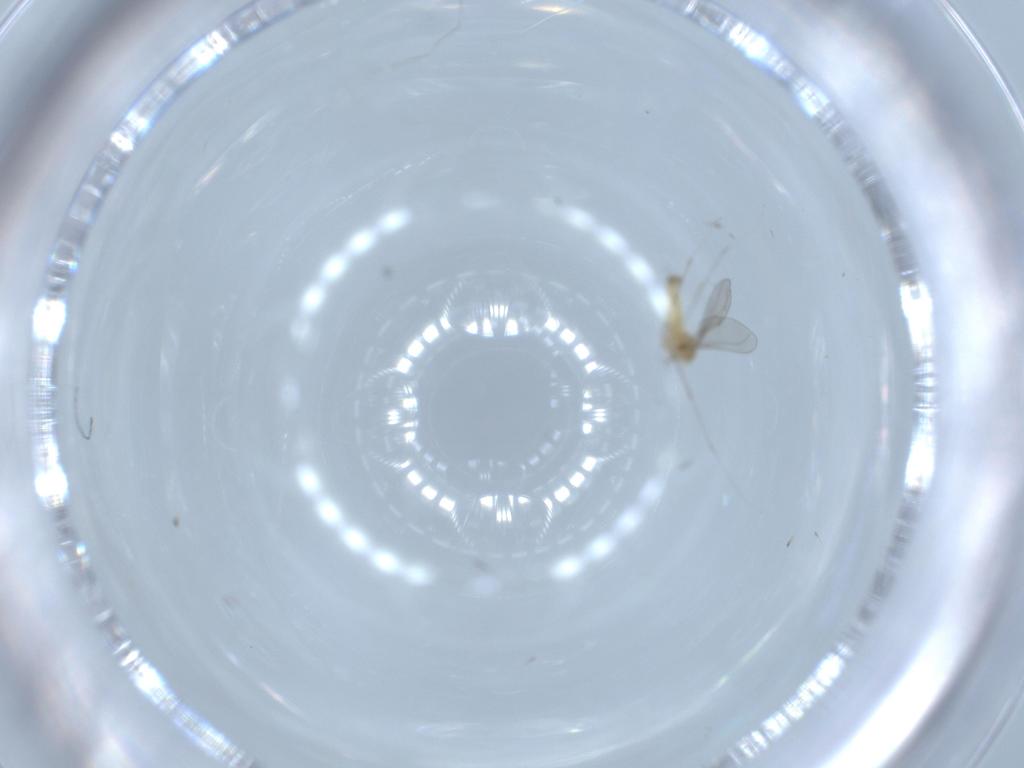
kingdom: Animalia
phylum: Arthropoda
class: Insecta
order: Diptera
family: Cecidomyiidae
